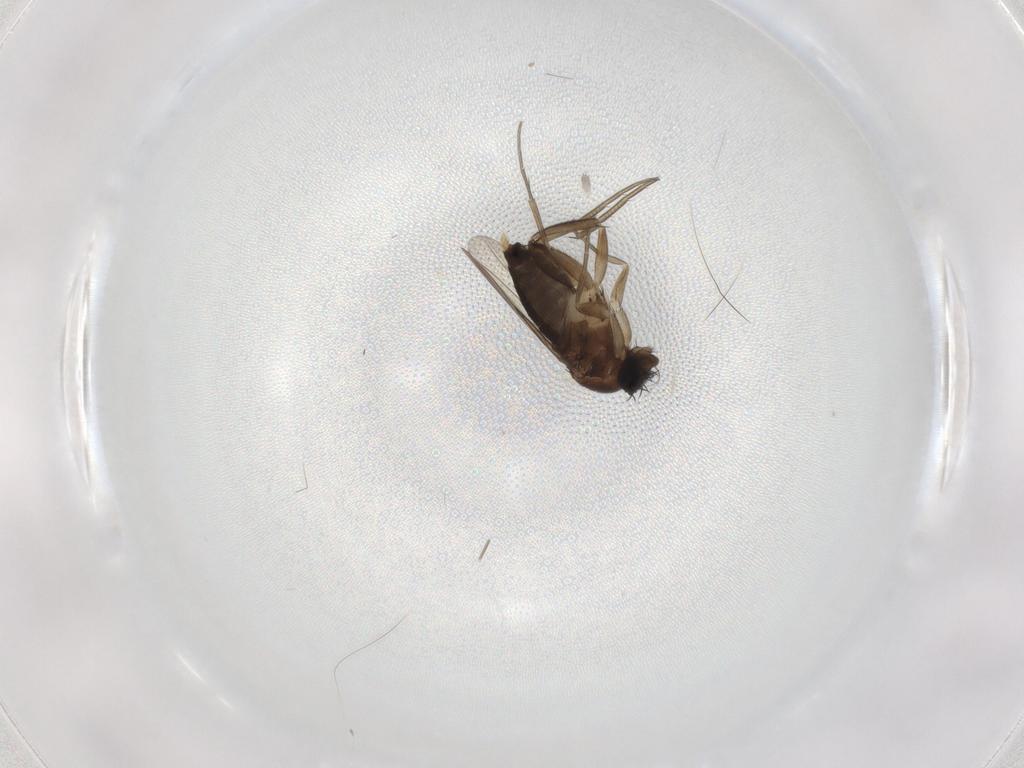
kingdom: Animalia
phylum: Arthropoda
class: Insecta
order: Diptera
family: Phoridae
